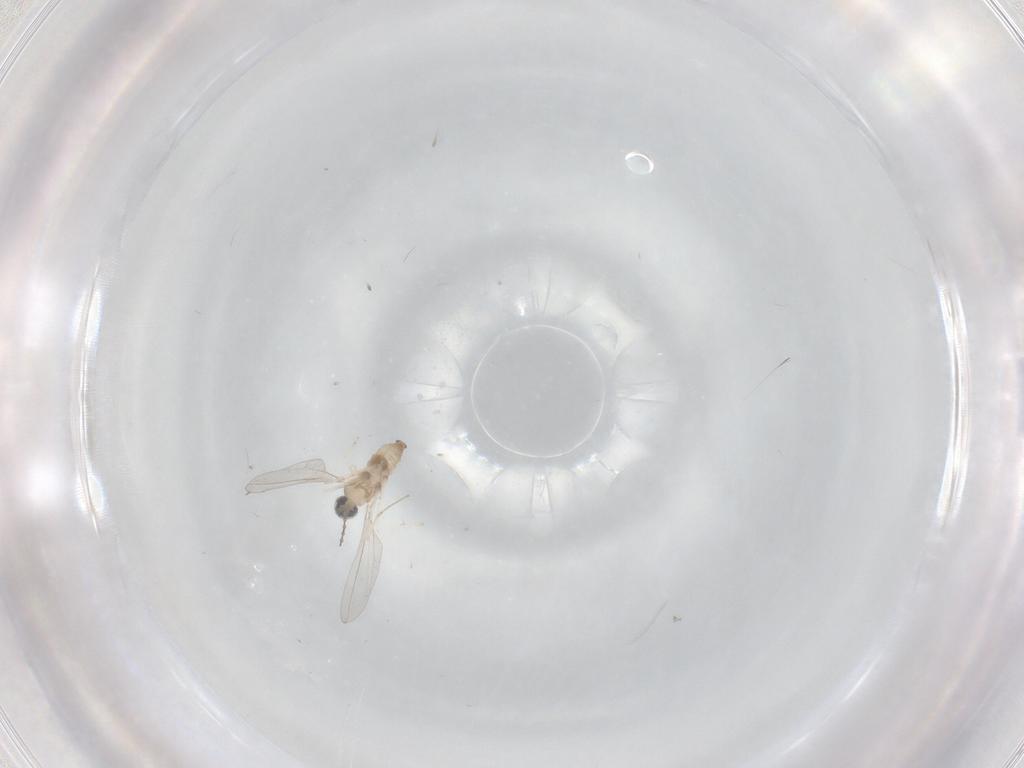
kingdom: Animalia
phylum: Arthropoda
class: Insecta
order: Diptera
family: Cecidomyiidae
